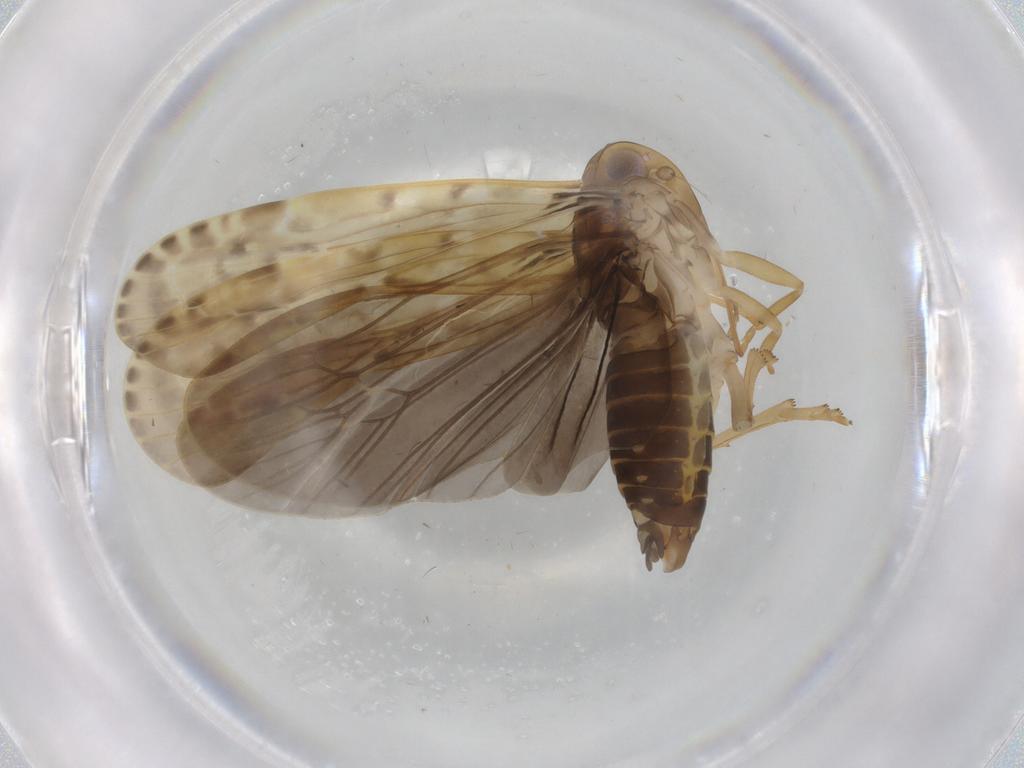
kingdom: Animalia
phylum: Arthropoda
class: Insecta
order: Hemiptera
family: Achilidae
